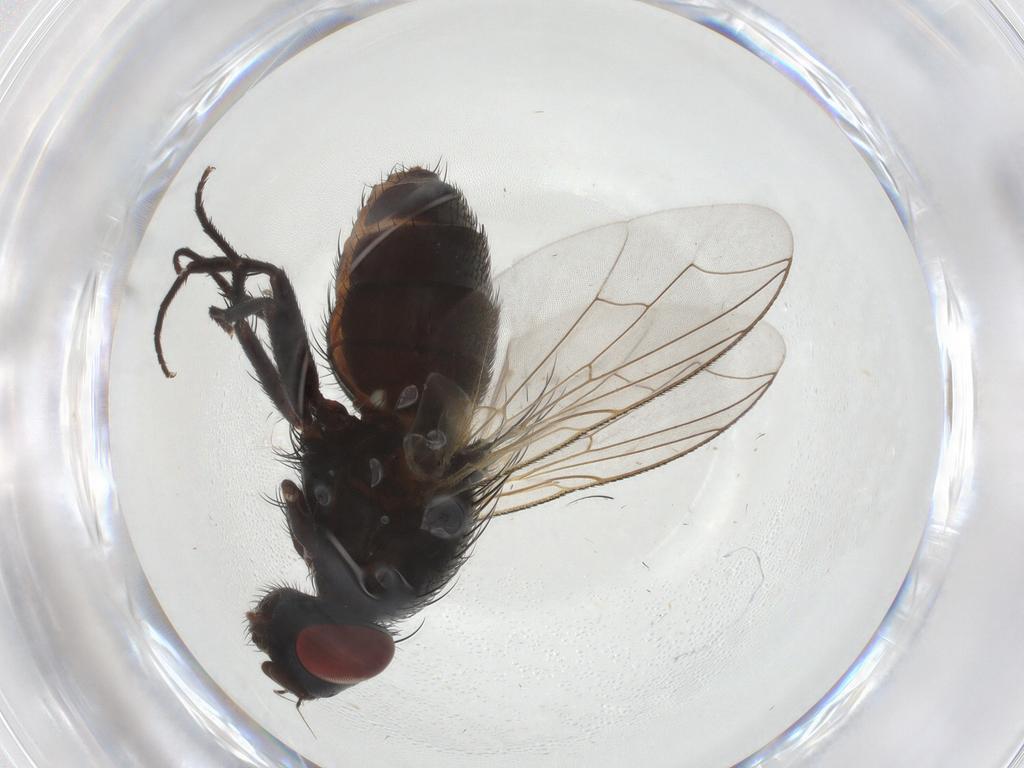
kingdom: Animalia
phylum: Arthropoda
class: Insecta
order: Diptera
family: Sarcophagidae
